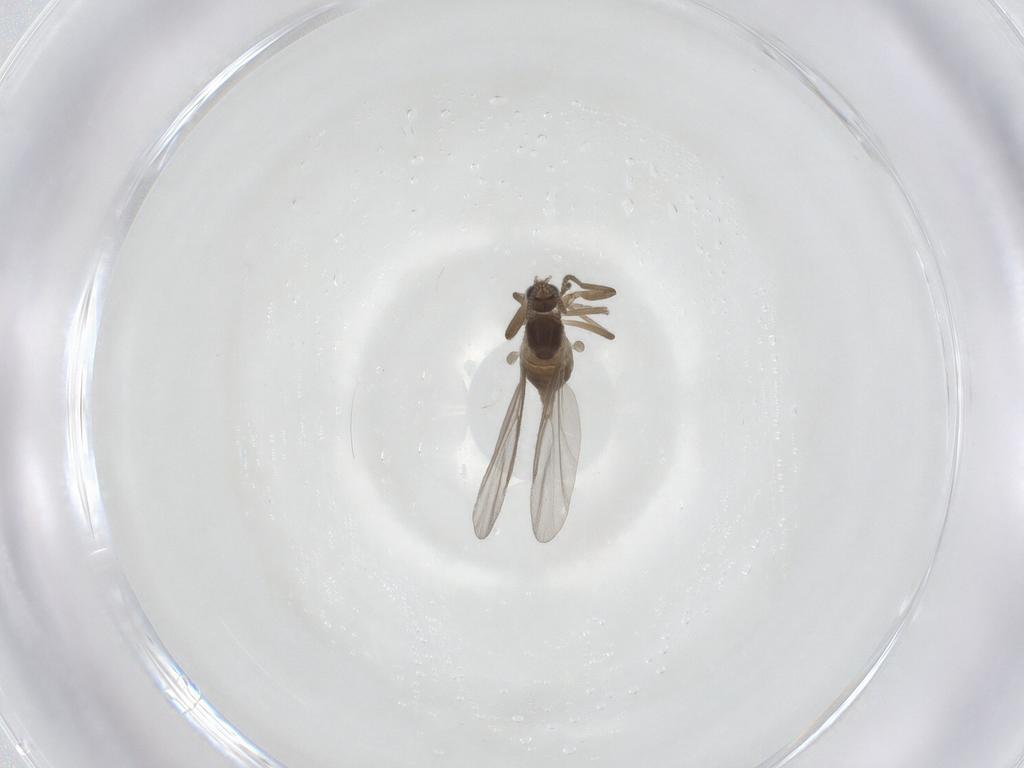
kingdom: Animalia
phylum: Arthropoda
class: Insecta
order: Diptera
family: Cecidomyiidae
